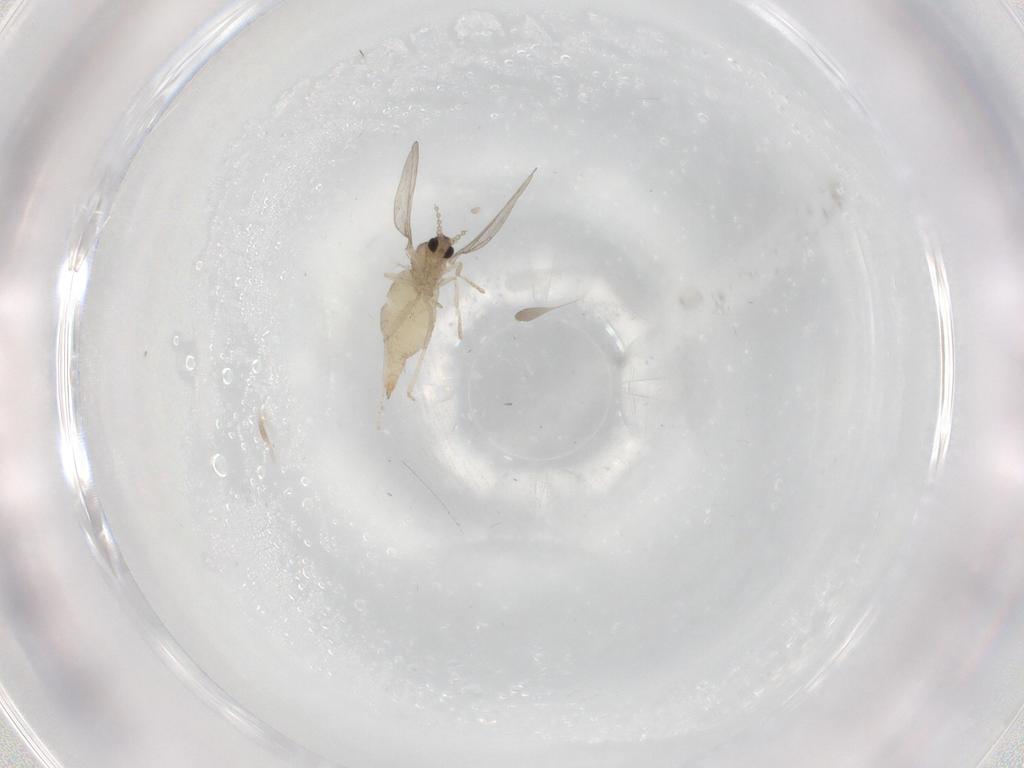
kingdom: Animalia
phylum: Arthropoda
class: Insecta
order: Diptera
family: Cecidomyiidae
